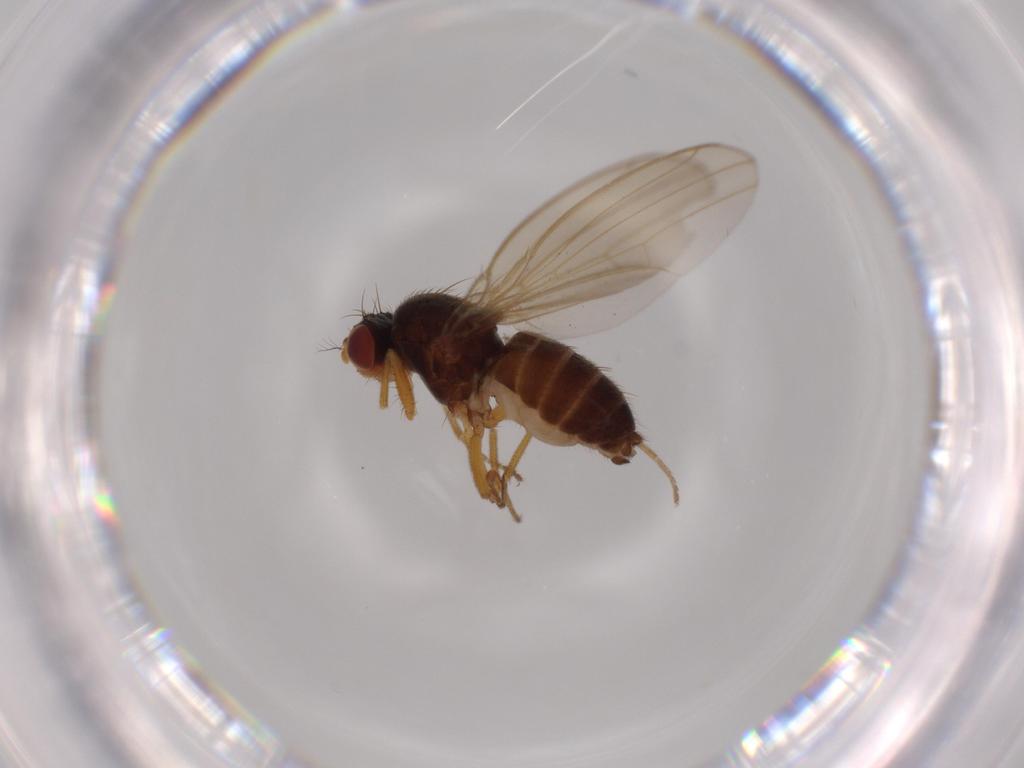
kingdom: Animalia
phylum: Arthropoda
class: Insecta
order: Diptera
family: Drosophilidae
